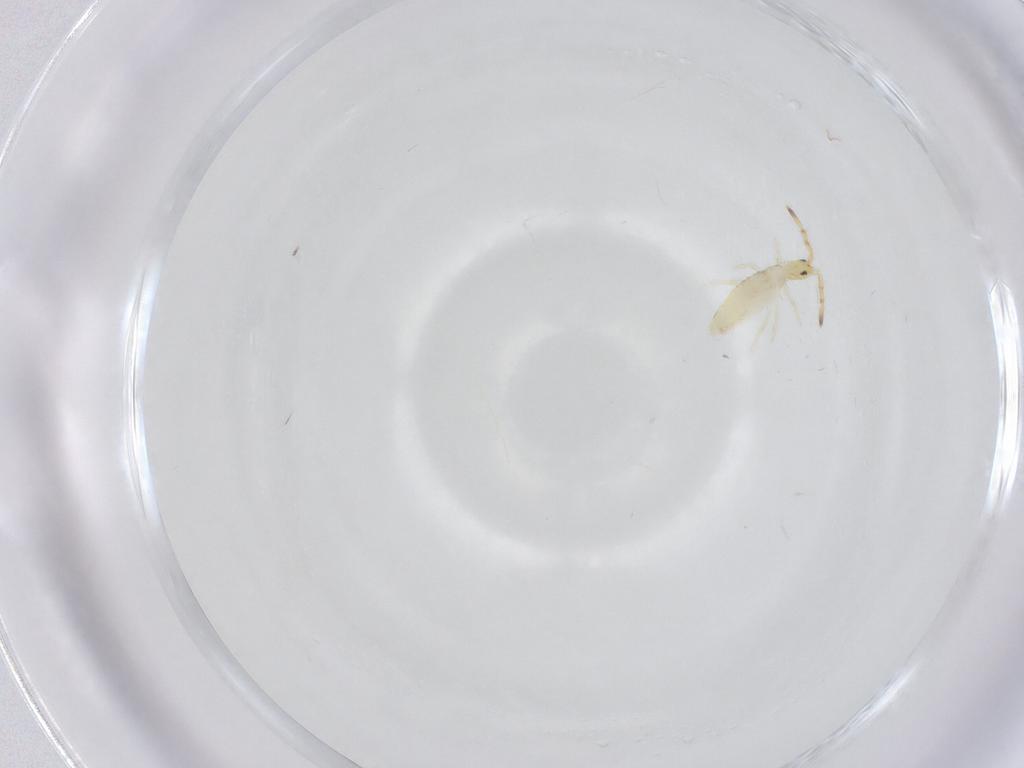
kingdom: Animalia
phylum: Arthropoda
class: Collembola
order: Entomobryomorpha
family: Entomobryidae
